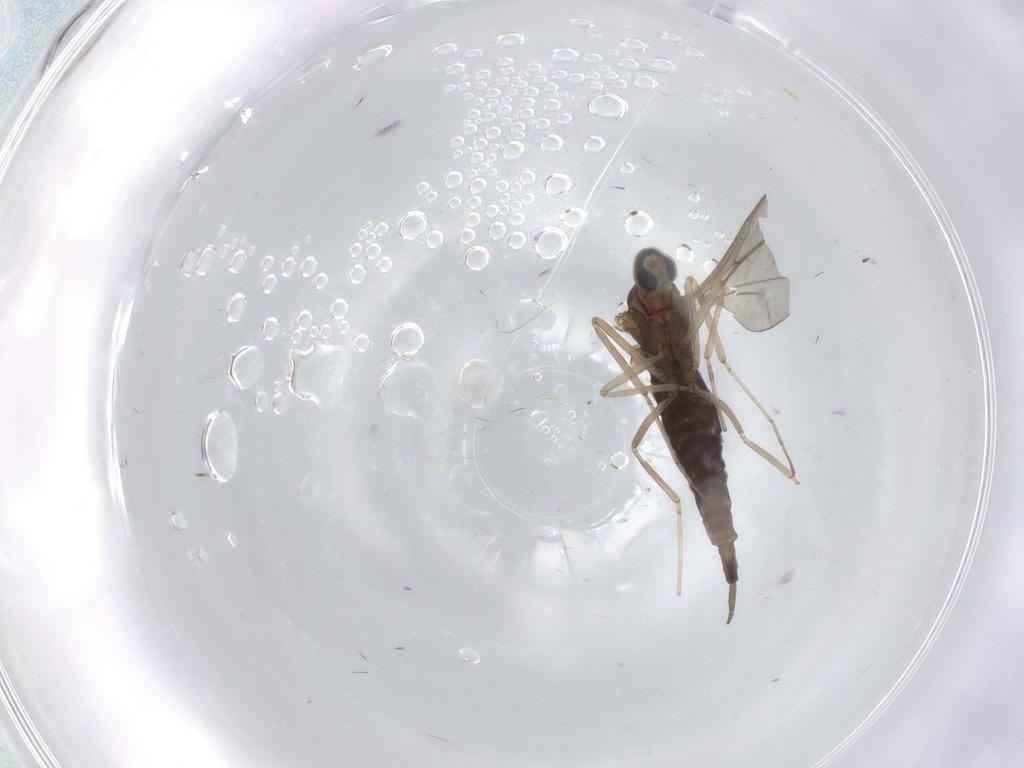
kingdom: Animalia
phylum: Arthropoda
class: Insecta
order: Diptera
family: Cecidomyiidae
